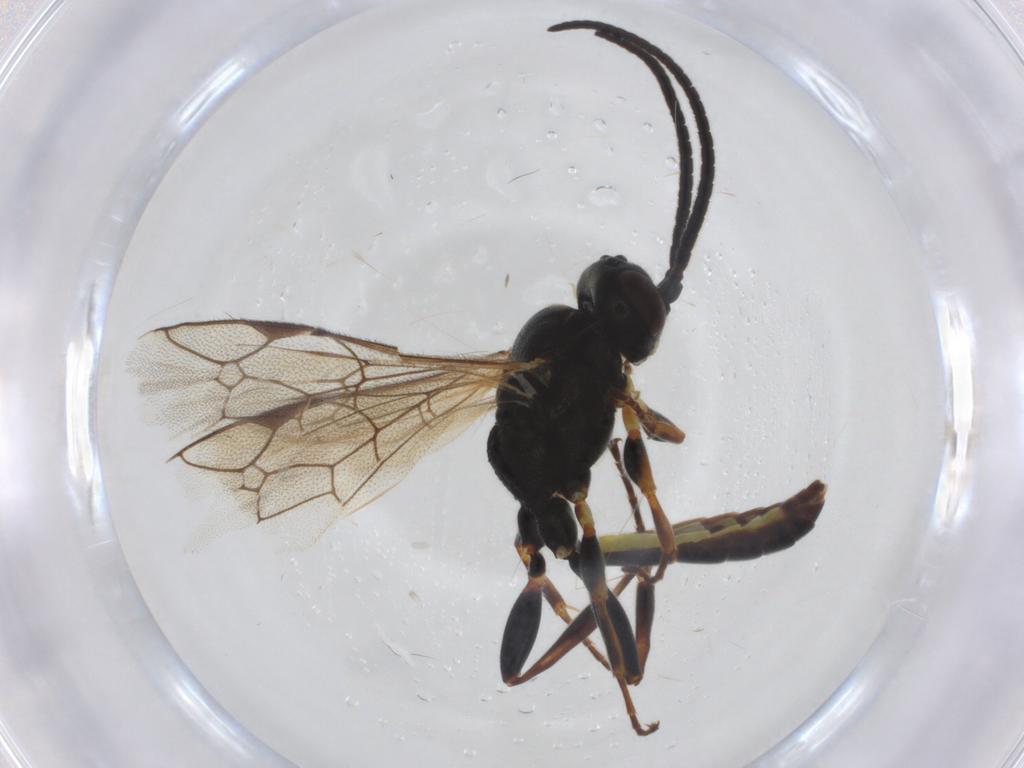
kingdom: Animalia
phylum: Arthropoda
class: Insecta
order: Hymenoptera
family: Ichneumonidae
